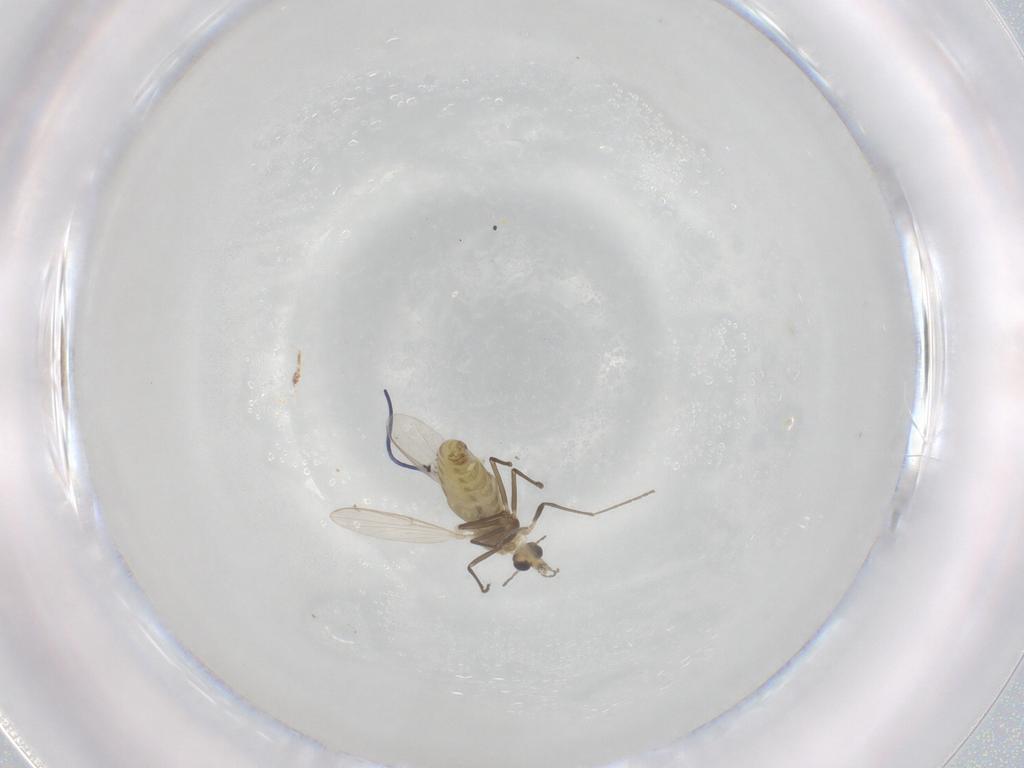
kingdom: Animalia
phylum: Arthropoda
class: Insecta
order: Diptera
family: Chironomidae
